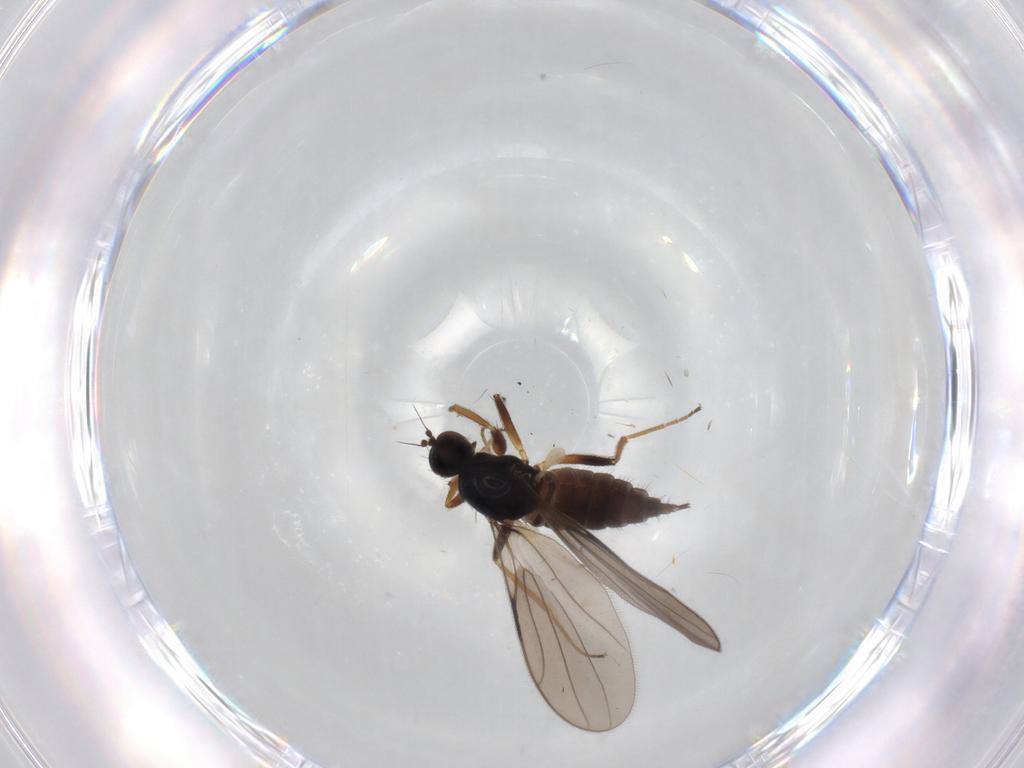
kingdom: Animalia
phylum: Arthropoda
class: Insecta
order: Diptera
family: Hybotidae
